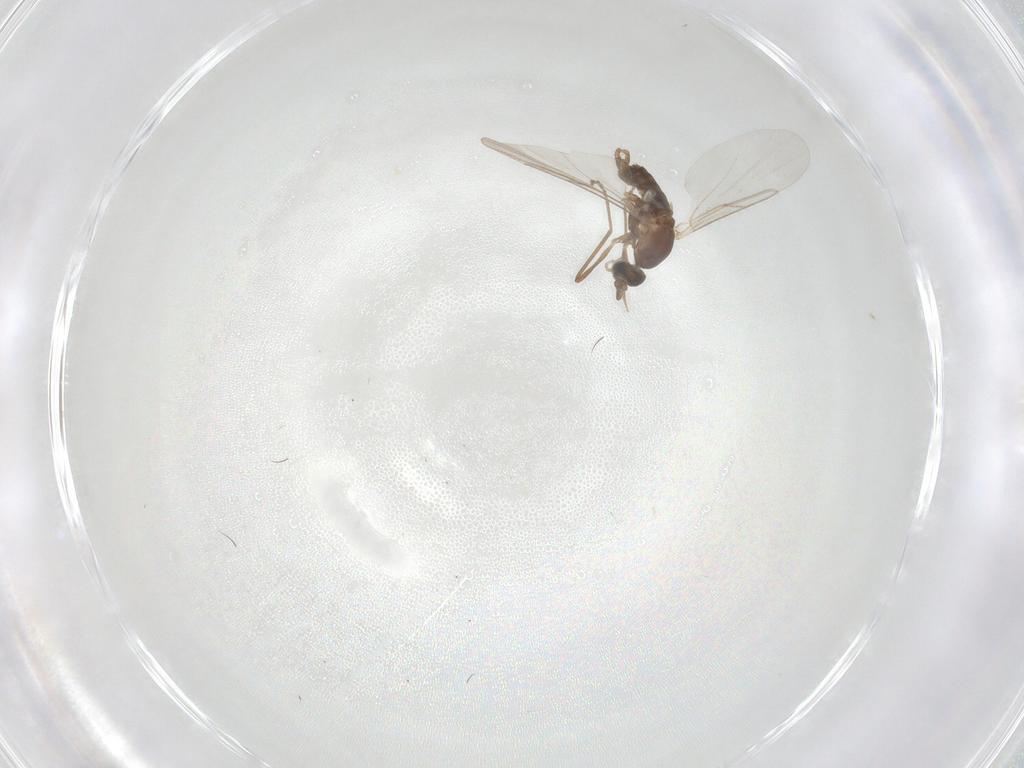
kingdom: Animalia
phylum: Arthropoda
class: Insecta
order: Diptera
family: Cecidomyiidae
